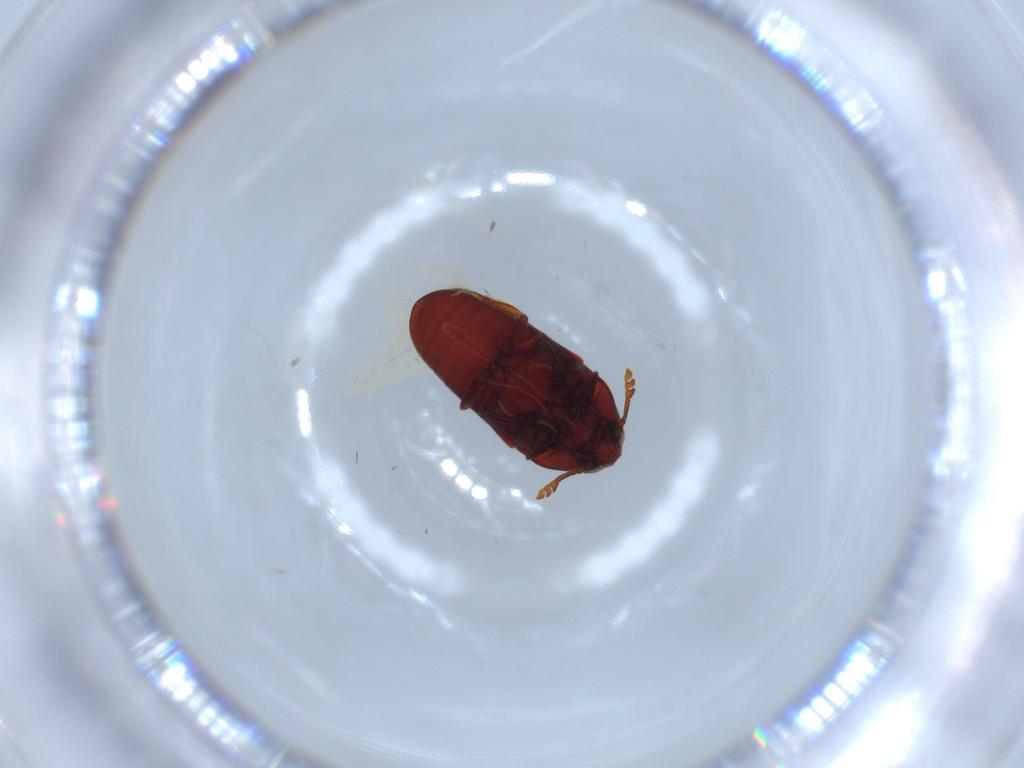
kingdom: Animalia
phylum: Arthropoda
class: Insecta
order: Coleoptera
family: Throscidae
